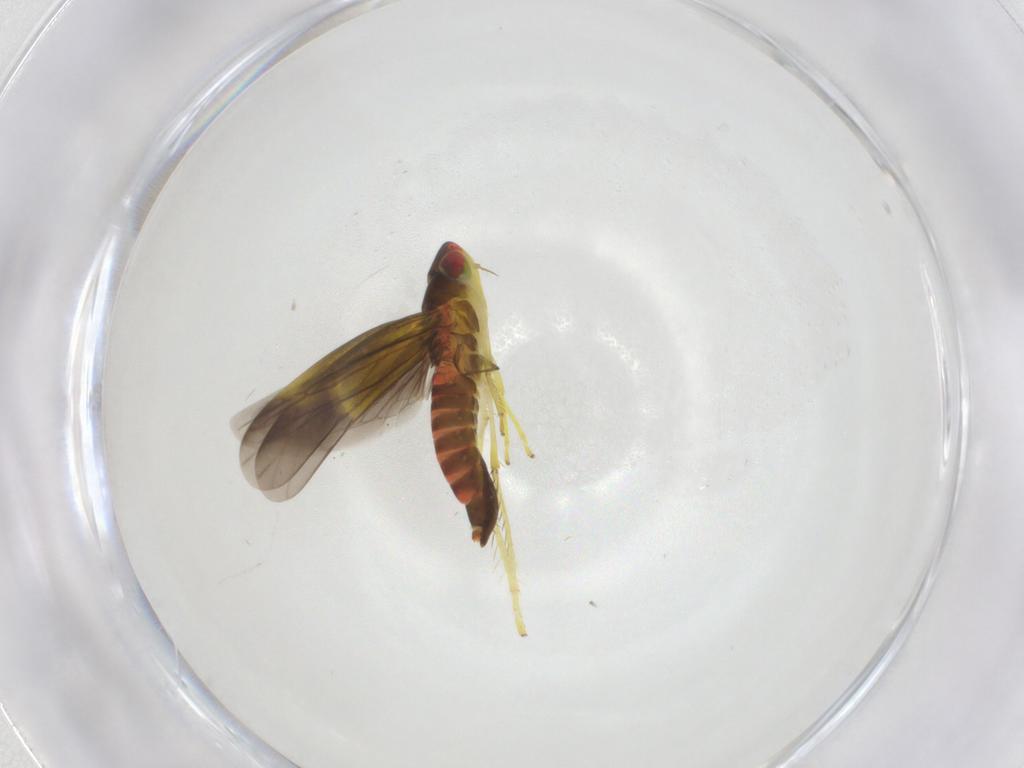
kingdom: Animalia
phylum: Arthropoda
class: Insecta
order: Hemiptera
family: Cicadellidae
